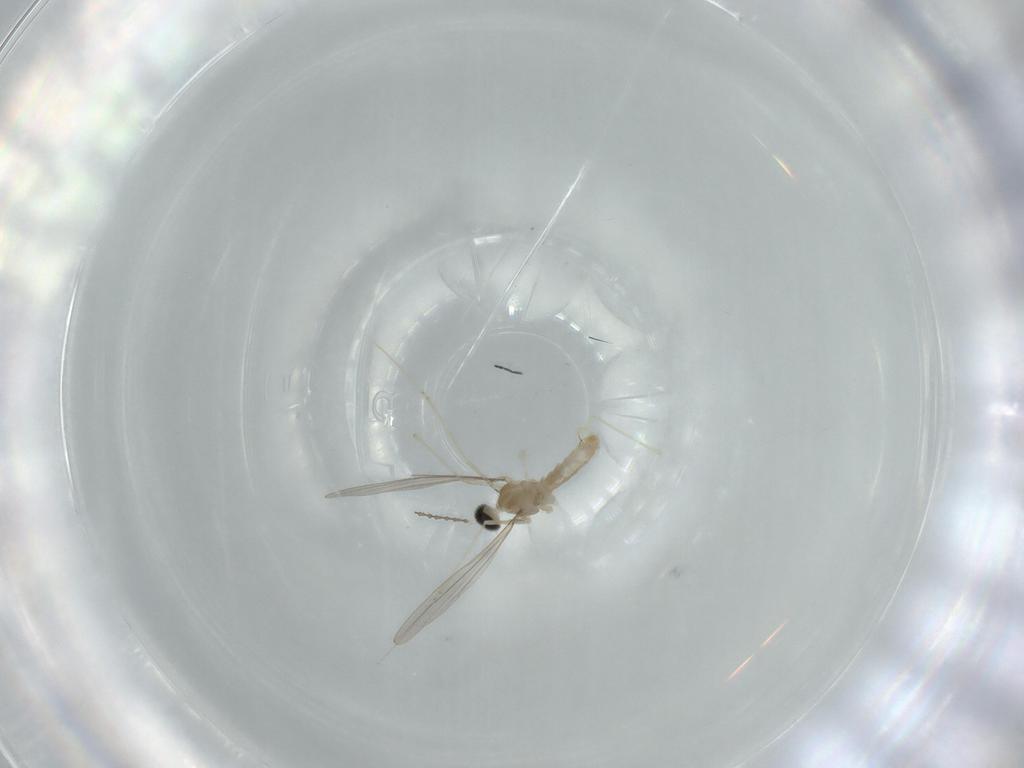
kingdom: Animalia
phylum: Arthropoda
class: Insecta
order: Diptera
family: Cecidomyiidae
